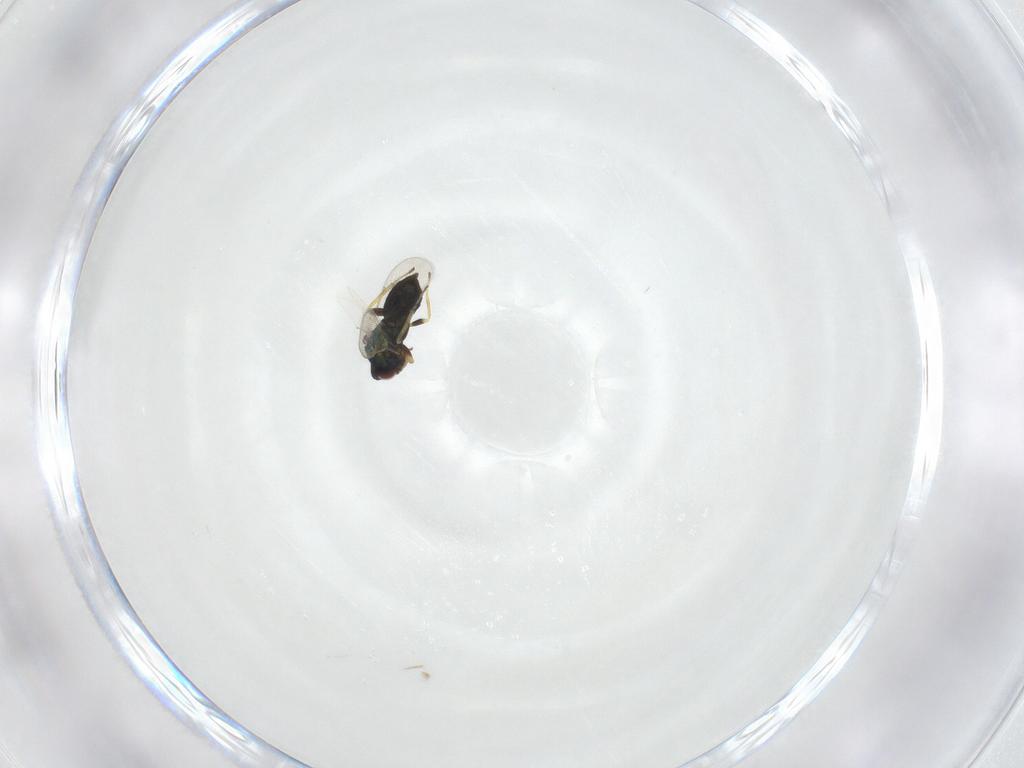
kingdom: Animalia
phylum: Arthropoda
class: Insecta
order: Hymenoptera
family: Eulophidae
